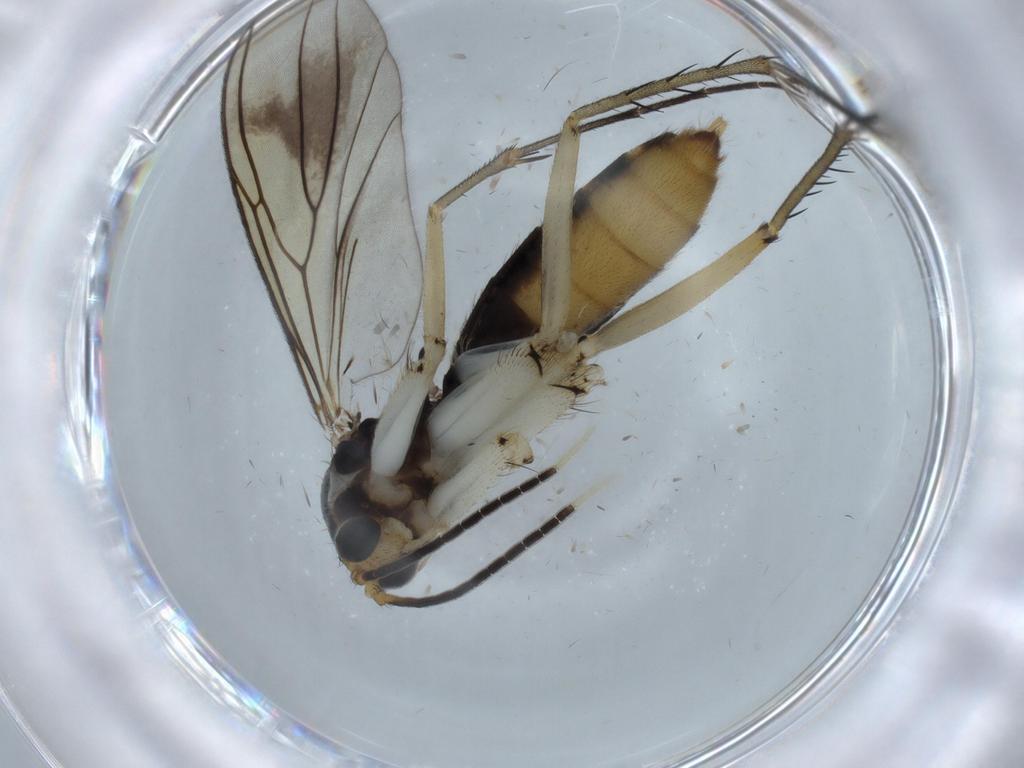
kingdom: Animalia
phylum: Arthropoda
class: Insecta
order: Diptera
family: Mycetophilidae
